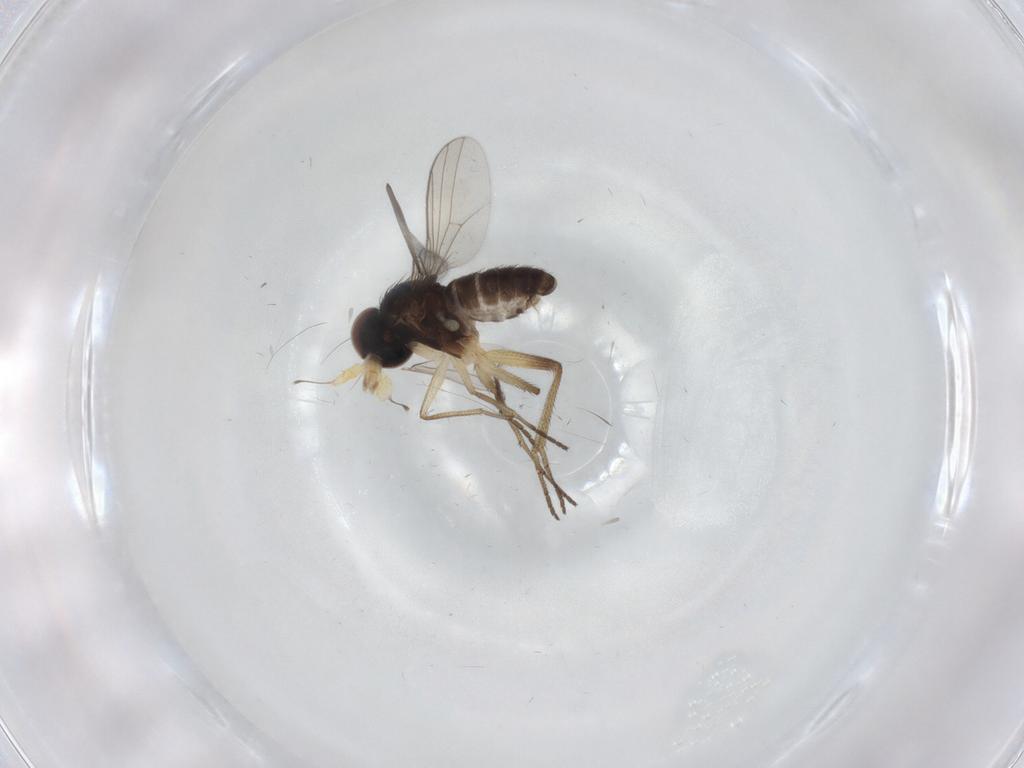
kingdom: Animalia
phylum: Arthropoda
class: Insecta
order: Diptera
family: Dolichopodidae
